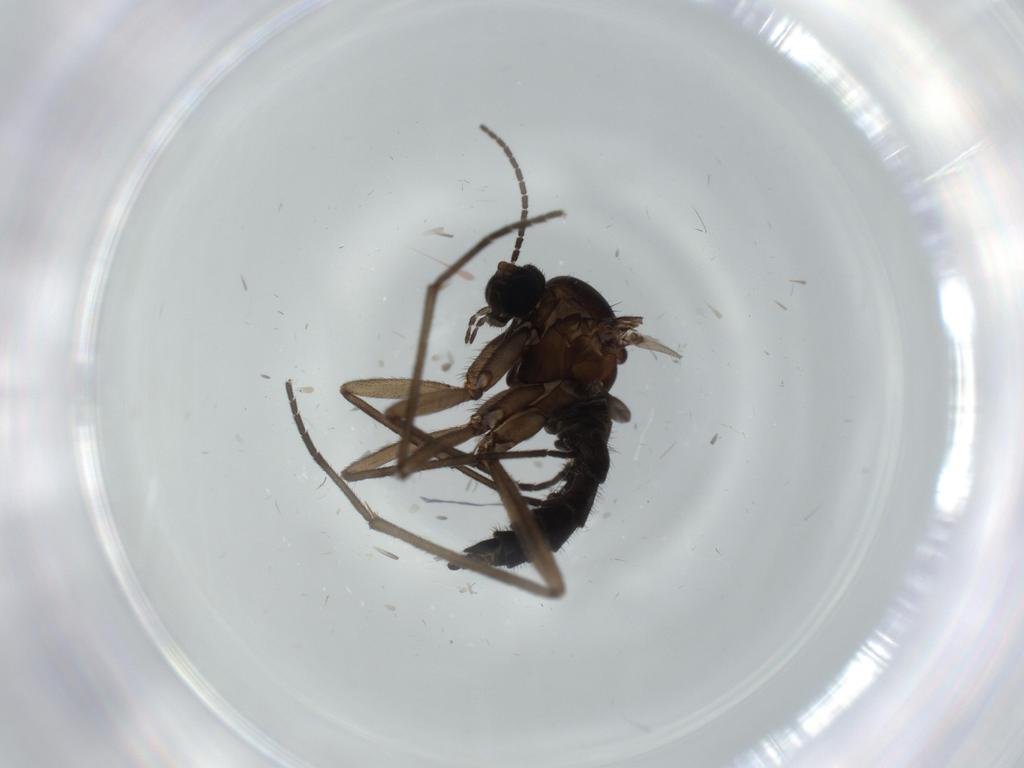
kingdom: Animalia
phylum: Arthropoda
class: Insecta
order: Diptera
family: Sciaridae
